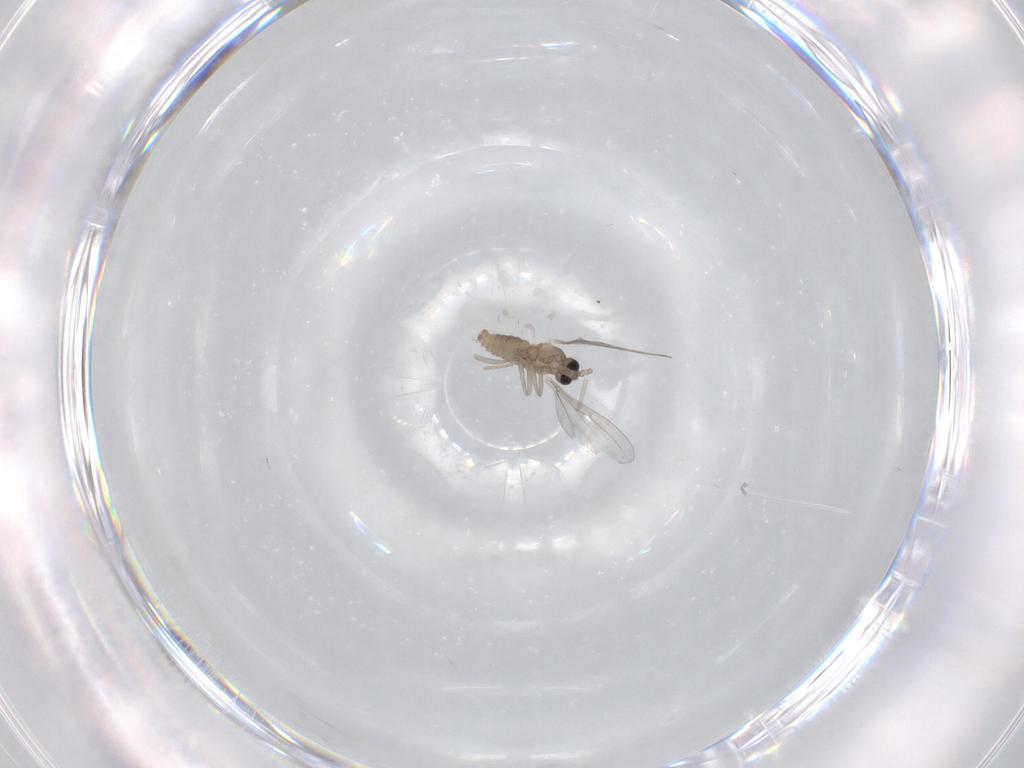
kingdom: Animalia
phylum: Arthropoda
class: Insecta
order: Diptera
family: Cecidomyiidae
